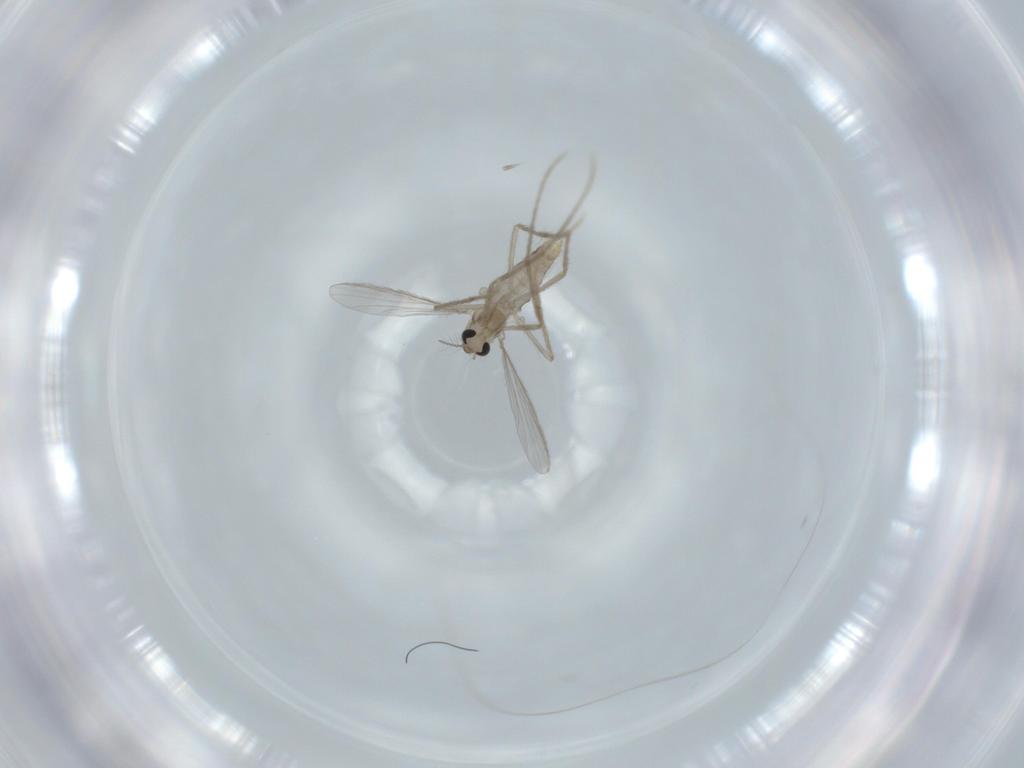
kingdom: Animalia
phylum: Arthropoda
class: Insecta
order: Diptera
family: Chironomidae
